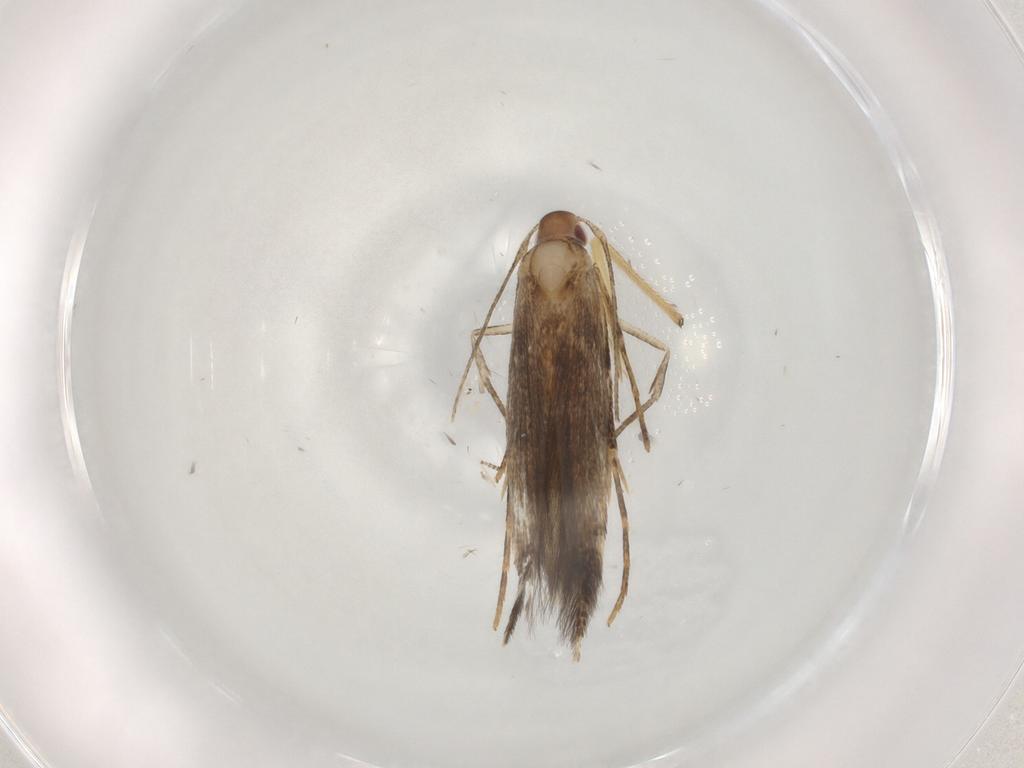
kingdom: Animalia
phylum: Arthropoda
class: Insecta
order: Lepidoptera
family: Cosmopterigidae
